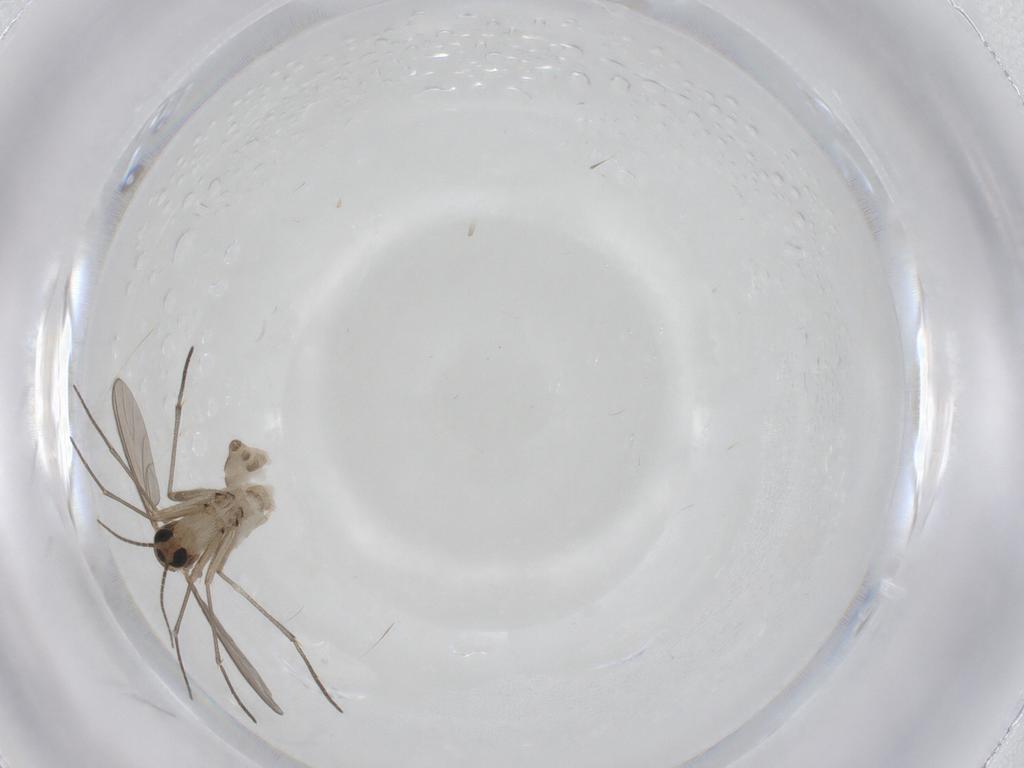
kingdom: Animalia
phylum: Arthropoda
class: Insecta
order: Diptera
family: Sciaridae
